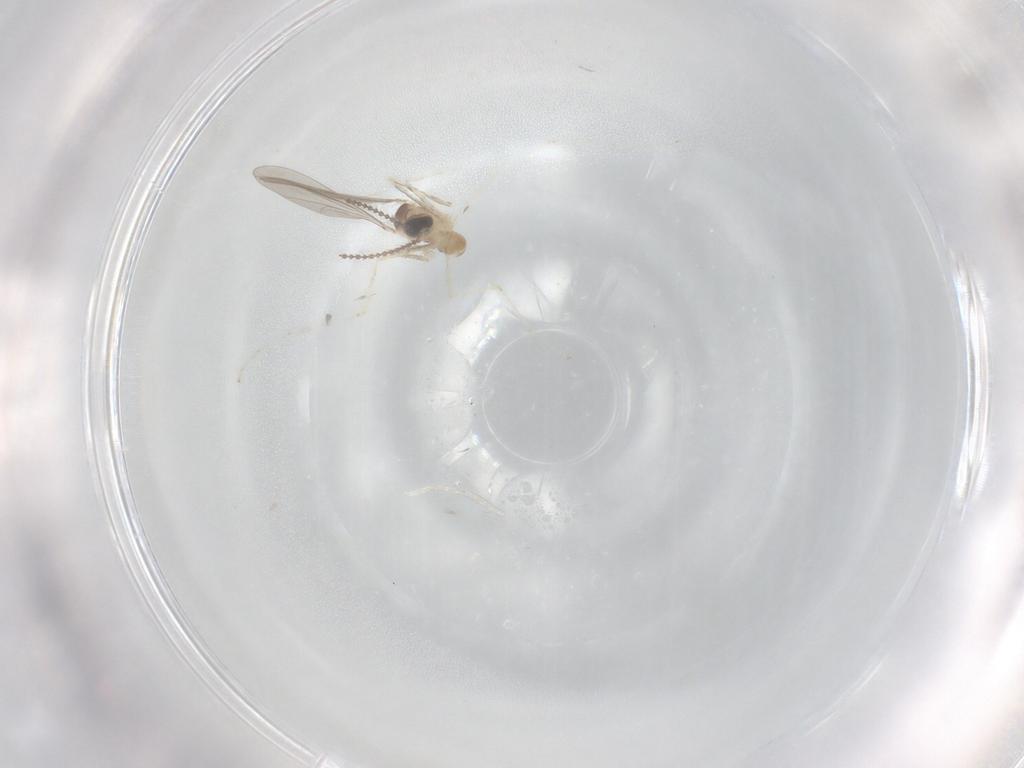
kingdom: Animalia
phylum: Arthropoda
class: Insecta
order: Diptera
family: Cecidomyiidae
